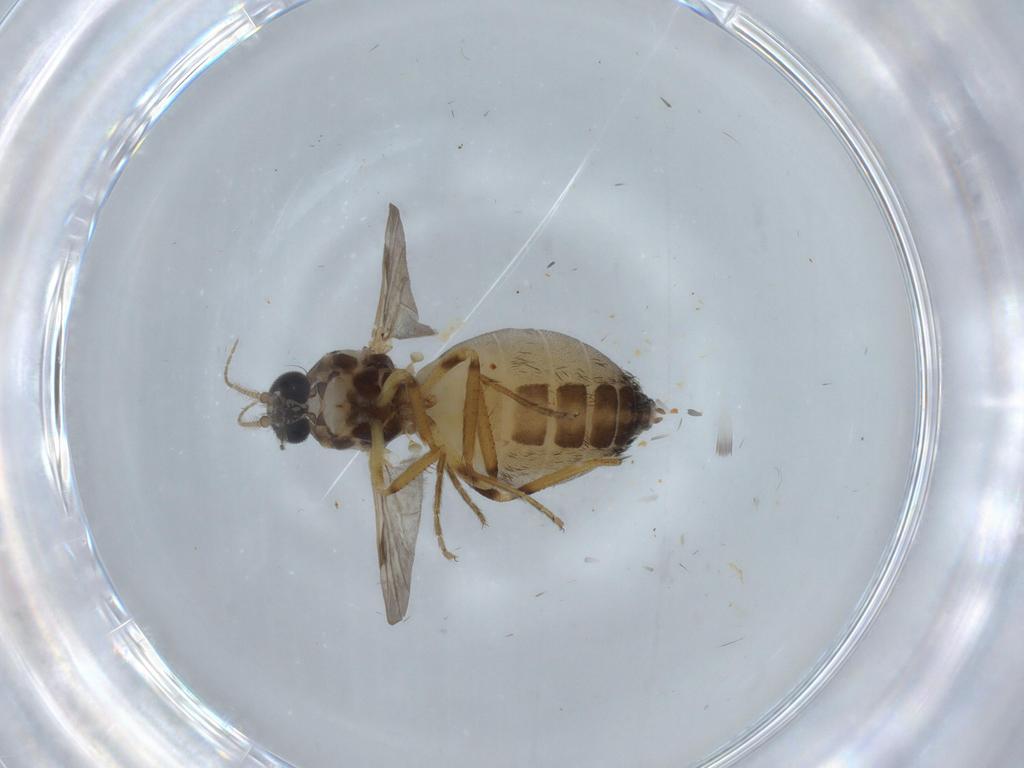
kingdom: Animalia
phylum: Arthropoda
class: Insecta
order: Diptera
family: Ceratopogonidae
